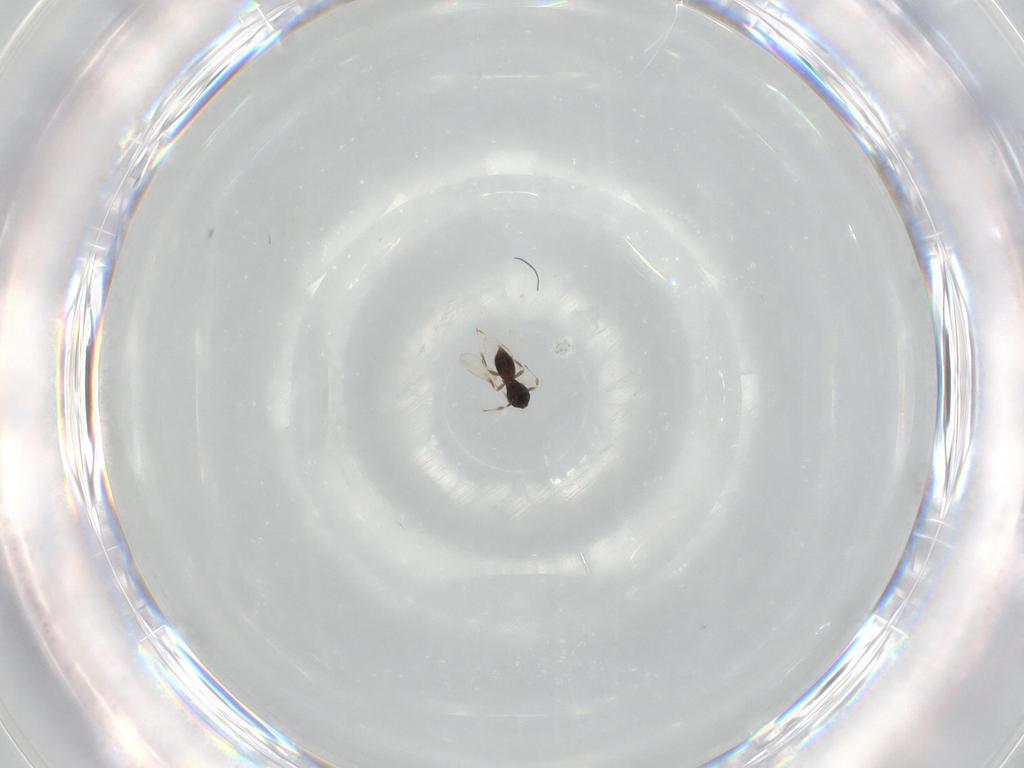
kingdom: Animalia
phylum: Arthropoda
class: Insecta
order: Hymenoptera
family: Scelionidae
